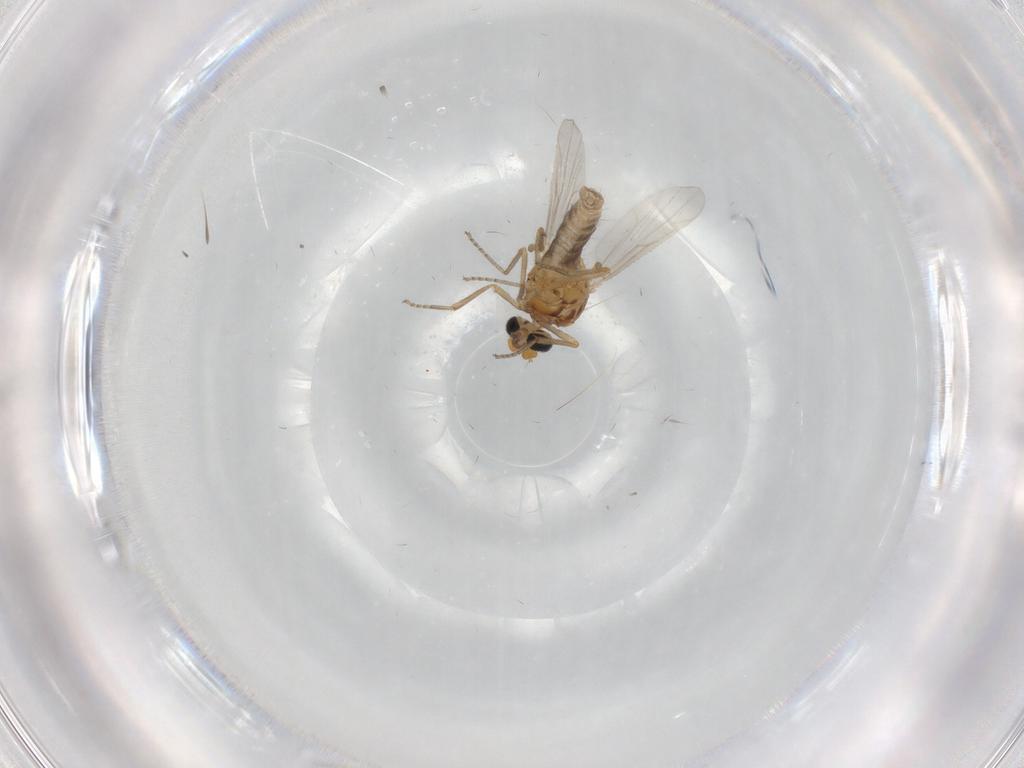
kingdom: Animalia
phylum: Arthropoda
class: Insecta
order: Diptera
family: Ceratopogonidae
